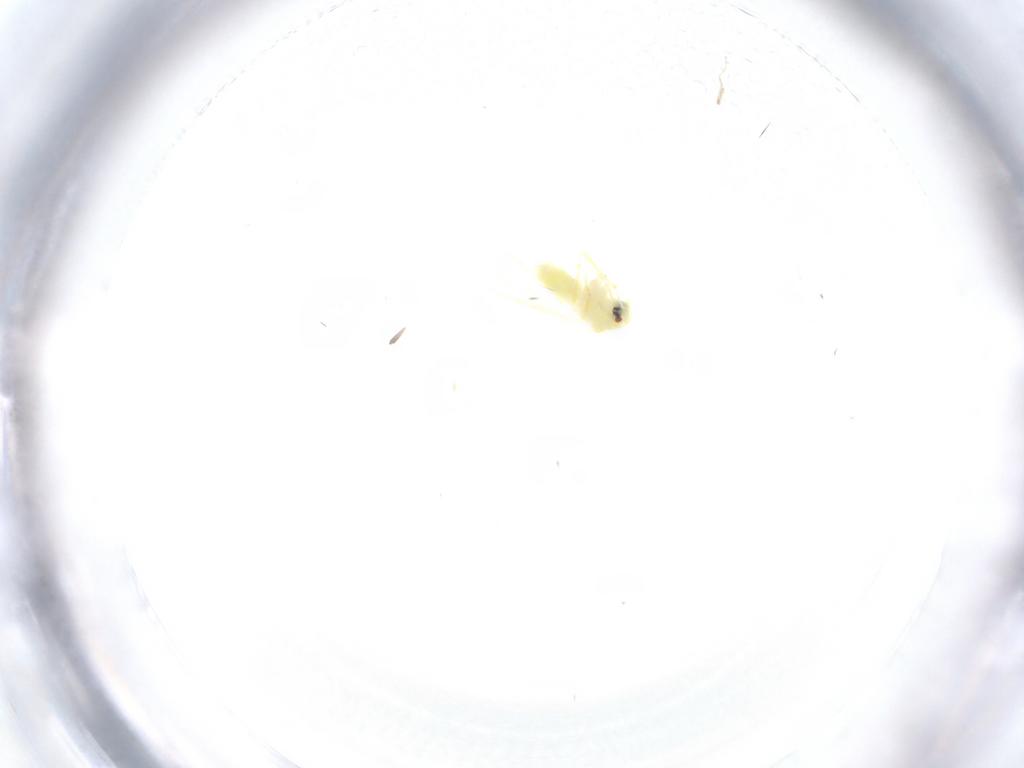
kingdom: Animalia
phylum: Arthropoda
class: Insecta
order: Hemiptera
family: Aleyrodidae
